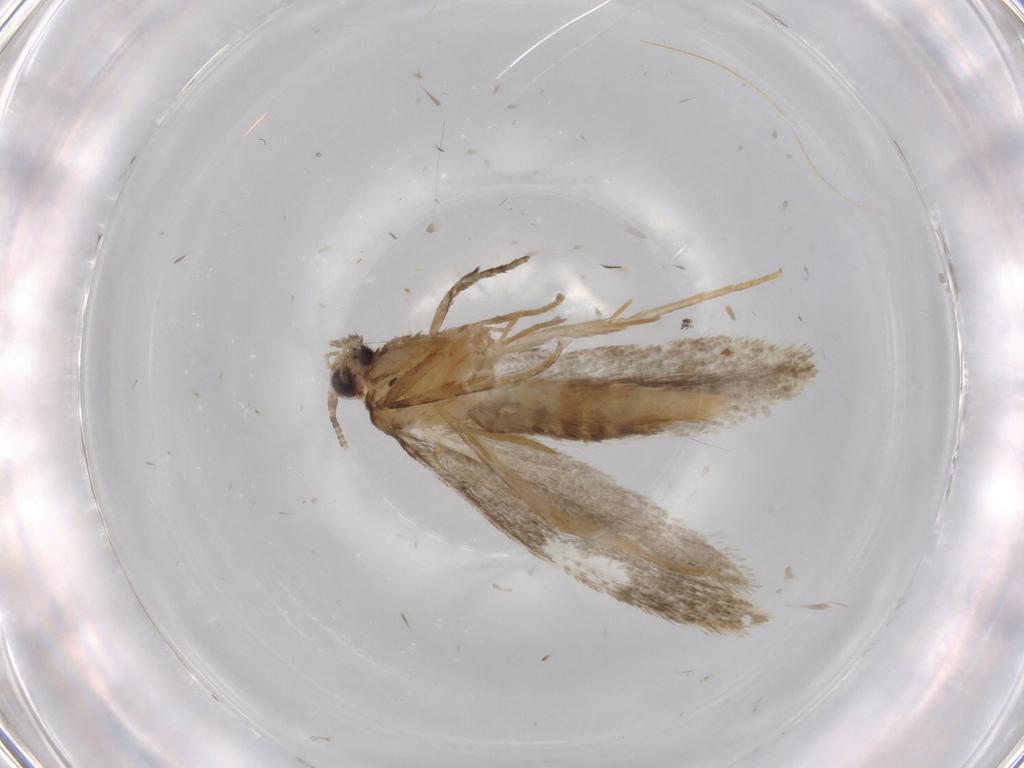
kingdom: Animalia
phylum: Arthropoda
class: Insecta
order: Lepidoptera
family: Tineidae
